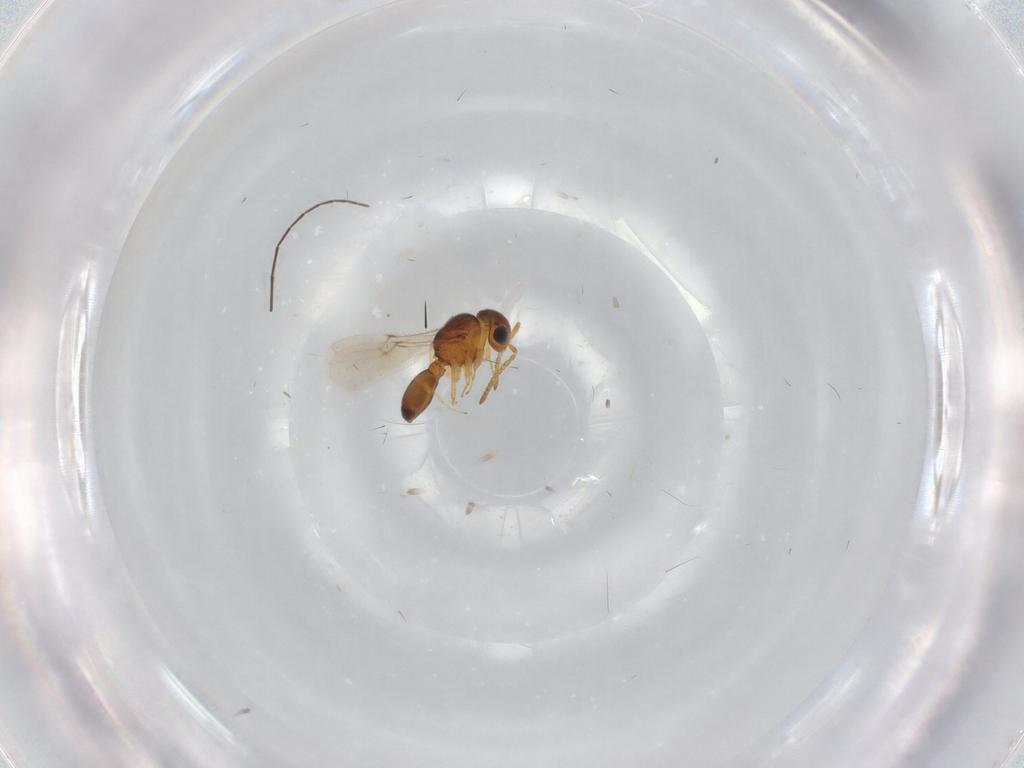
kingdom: Animalia
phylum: Arthropoda
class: Insecta
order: Hymenoptera
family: Scelionidae
